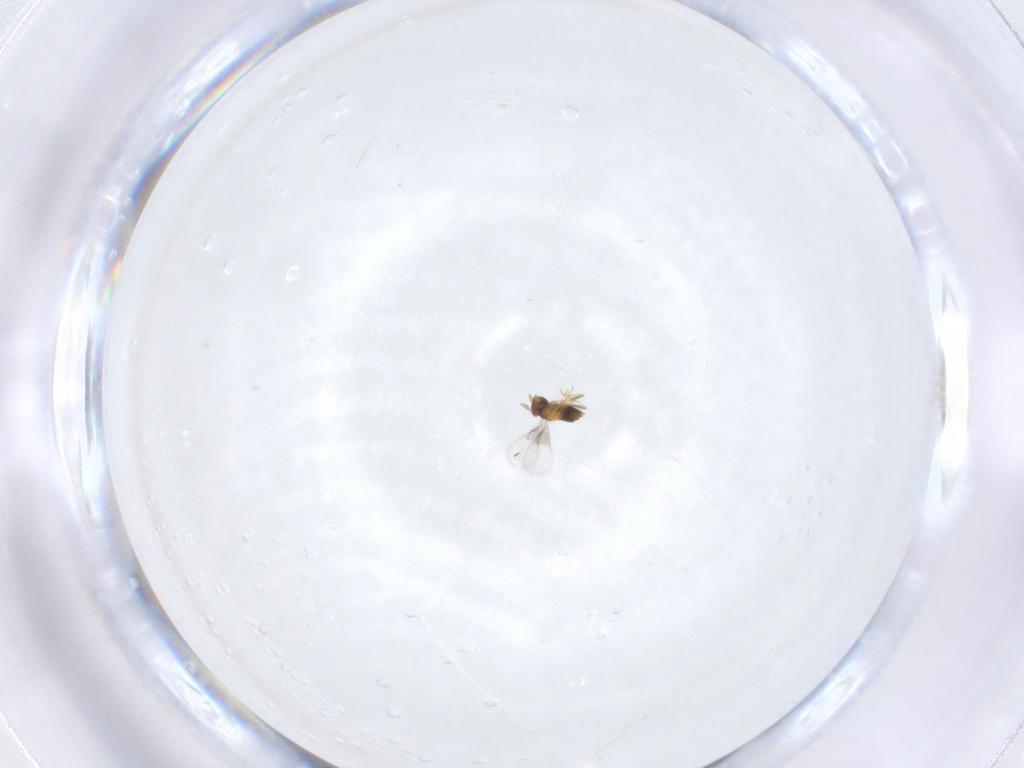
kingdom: Animalia
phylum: Arthropoda
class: Insecta
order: Hymenoptera
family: Trichogrammatidae
